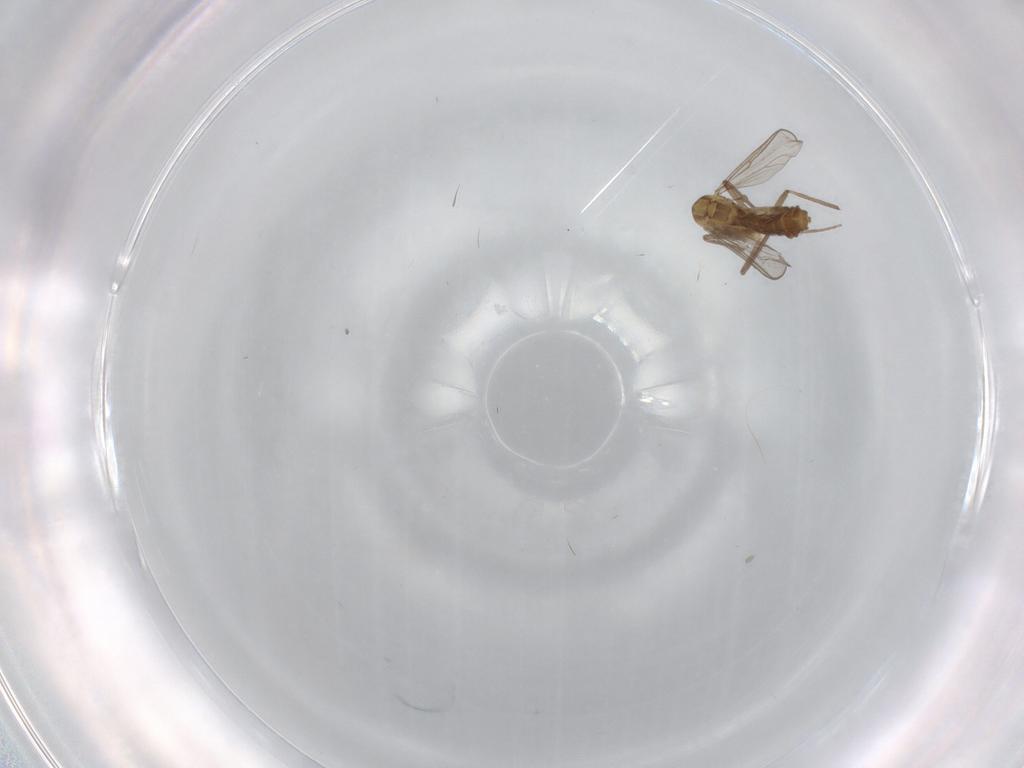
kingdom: Animalia
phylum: Arthropoda
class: Insecta
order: Diptera
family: Chironomidae
